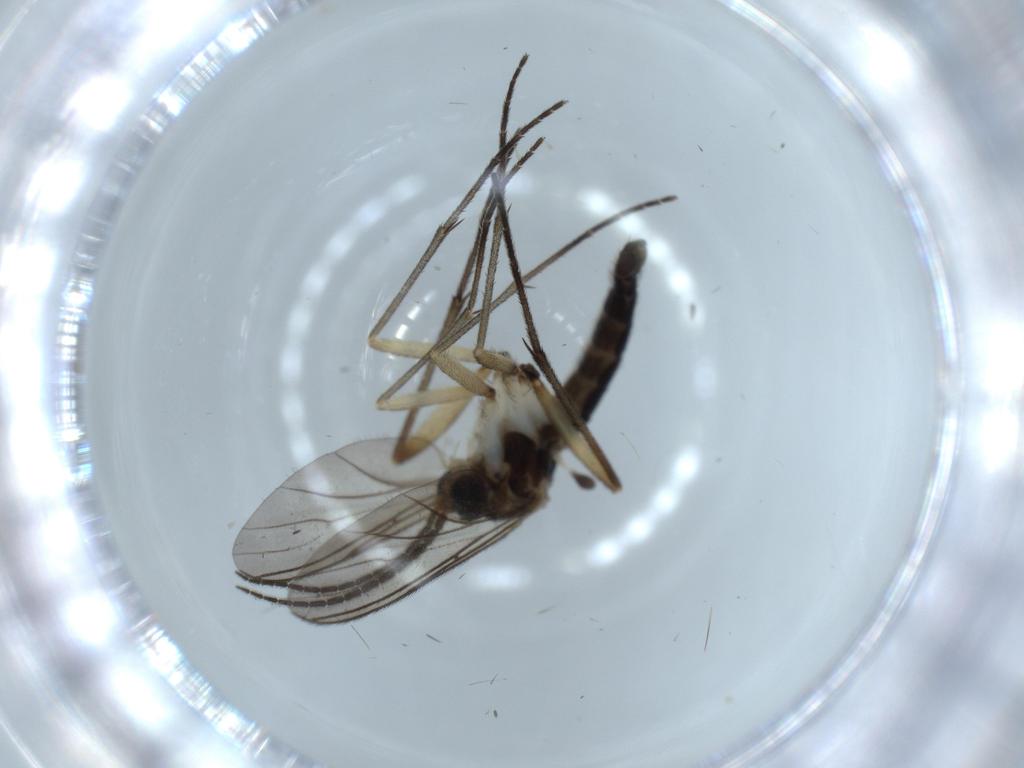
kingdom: Animalia
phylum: Arthropoda
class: Insecta
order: Diptera
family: Sciaridae
